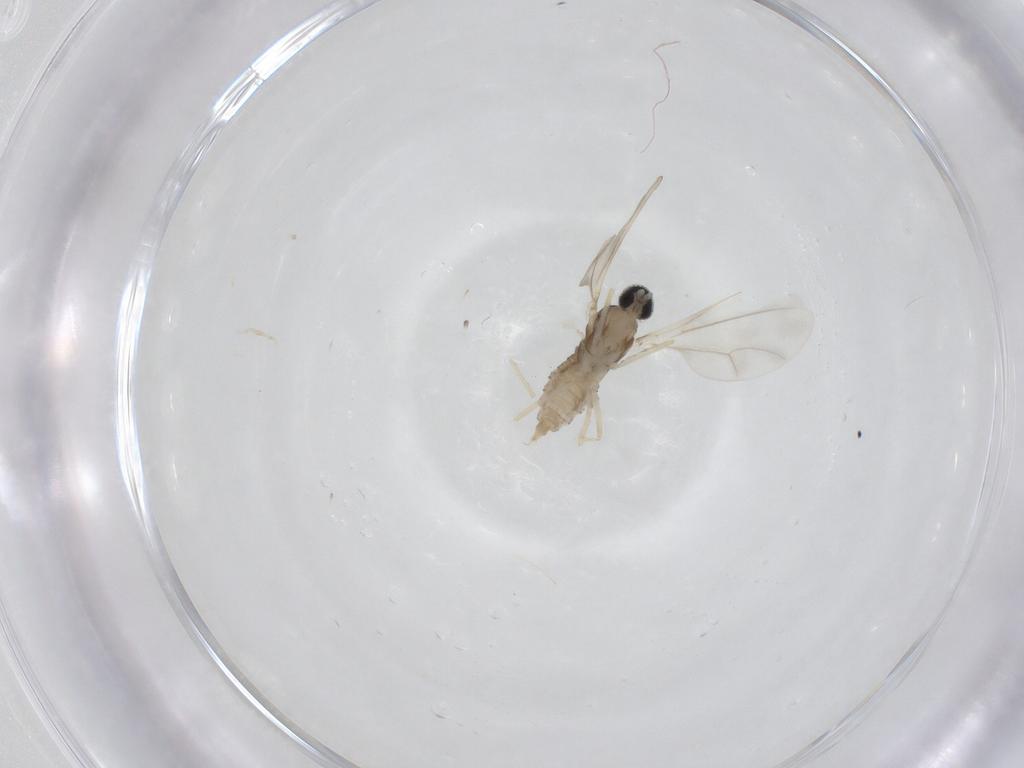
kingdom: Animalia
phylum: Arthropoda
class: Insecta
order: Diptera
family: Cecidomyiidae
